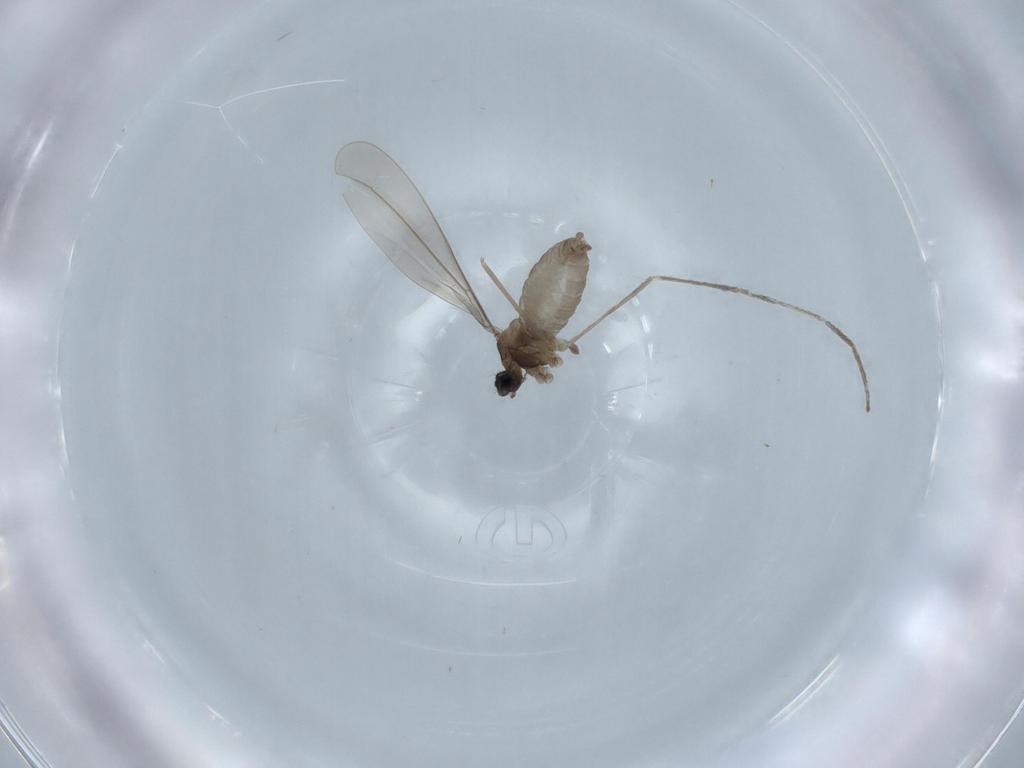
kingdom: Animalia
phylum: Arthropoda
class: Insecta
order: Diptera
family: Cecidomyiidae
